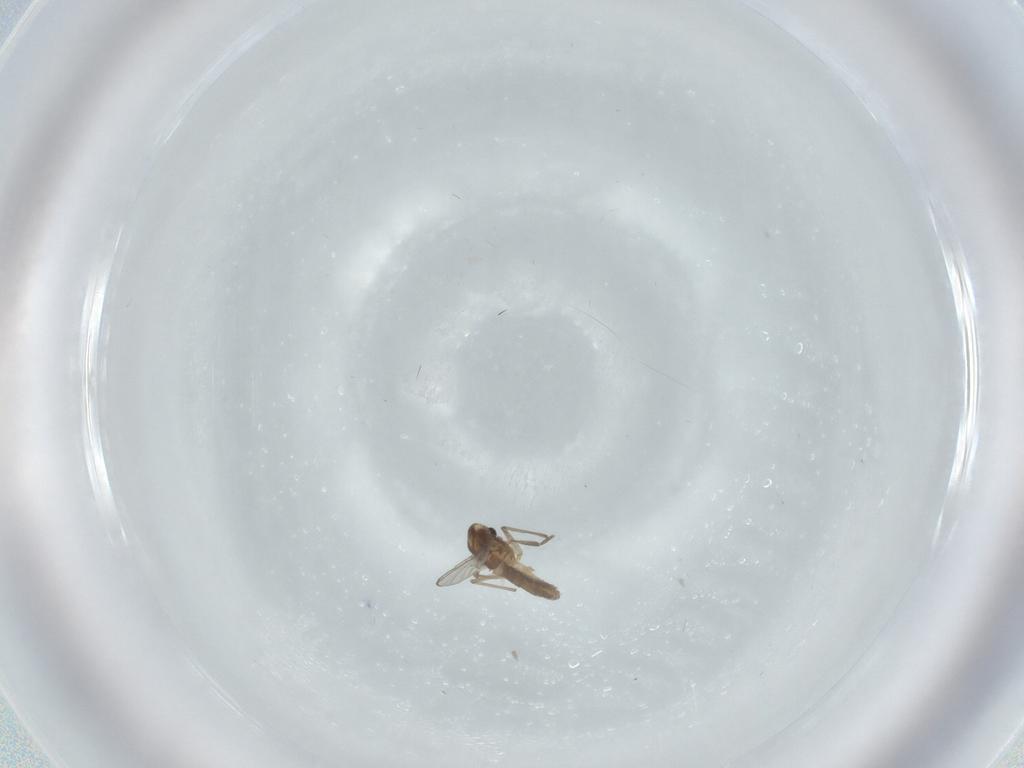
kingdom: Animalia
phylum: Arthropoda
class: Insecta
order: Diptera
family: Chironomidae
